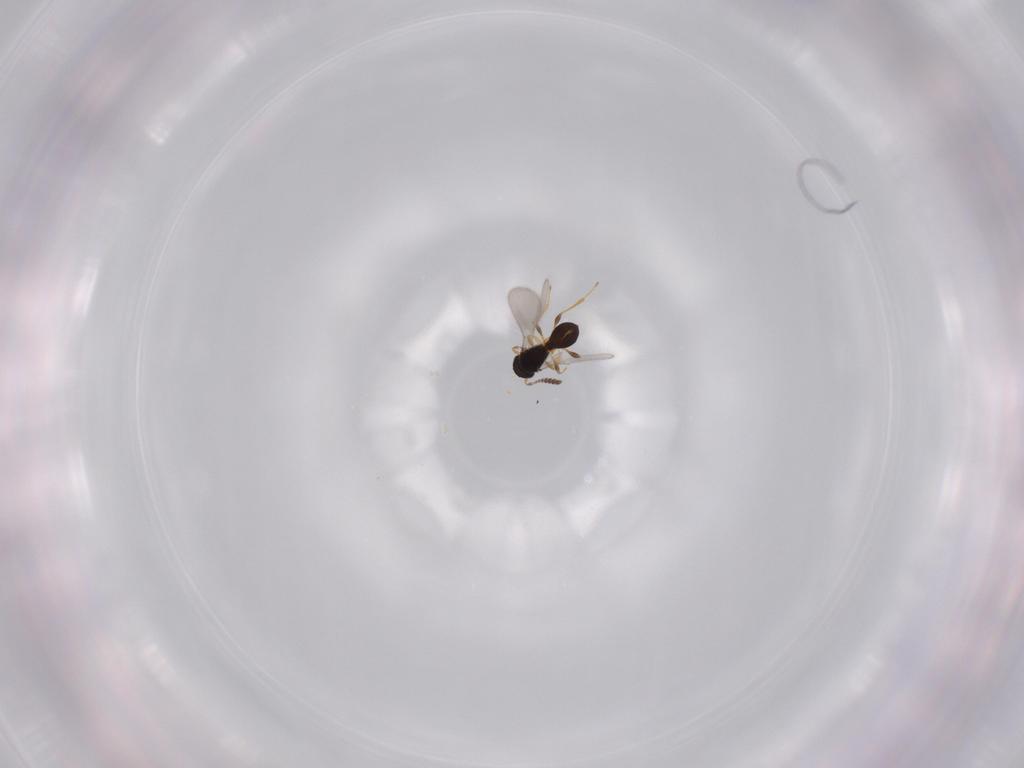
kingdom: Animalia
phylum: Arthropoda
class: Insecta
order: Hymenoptera
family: Platygastridae
